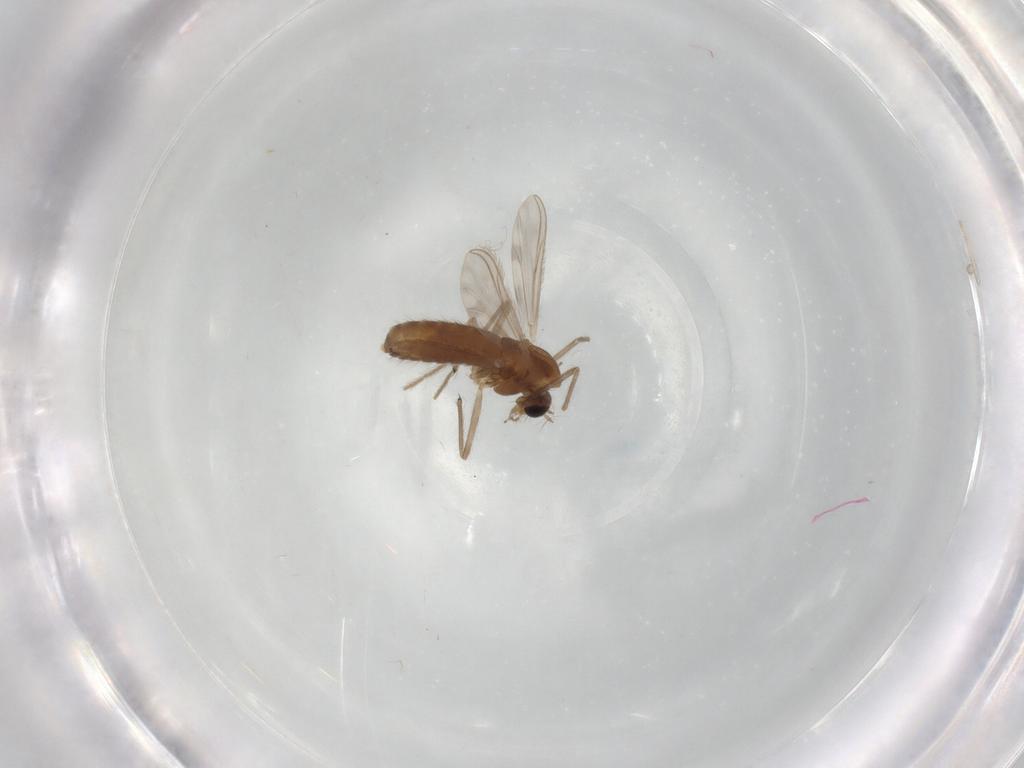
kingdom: Animalia
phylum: Arthropoda
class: Insecta
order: Diptera
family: Chironomidae
